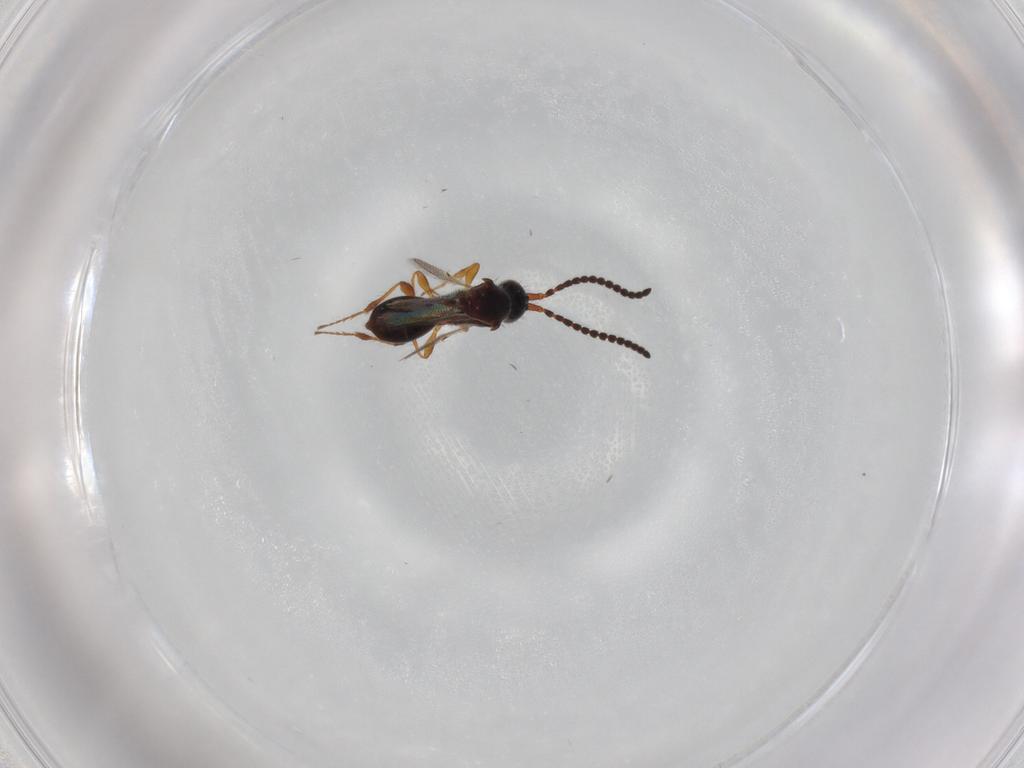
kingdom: Animalia
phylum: Arthropoda
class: Insecta
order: Hymenoptera
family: Diapriidae
